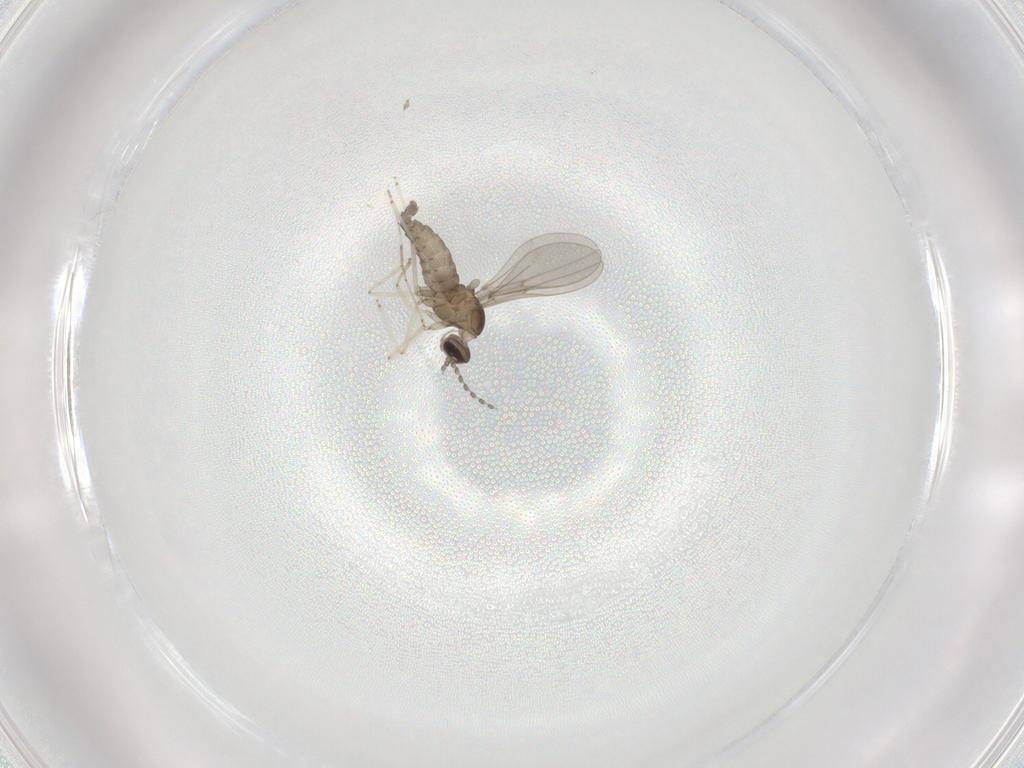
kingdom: Animalia
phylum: Arthropoda
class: Insecta
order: Diptera
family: Cecidomyiidae
